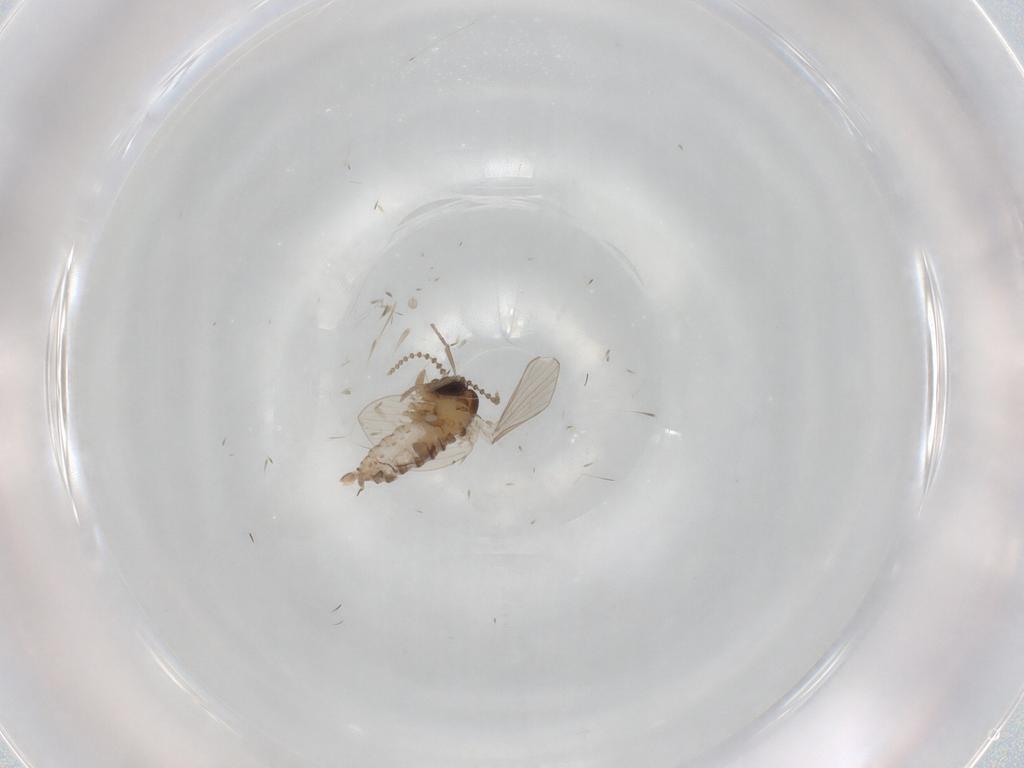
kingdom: Animalia
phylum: Arthropoda
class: Insecta
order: Diptera
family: Psychodidae
